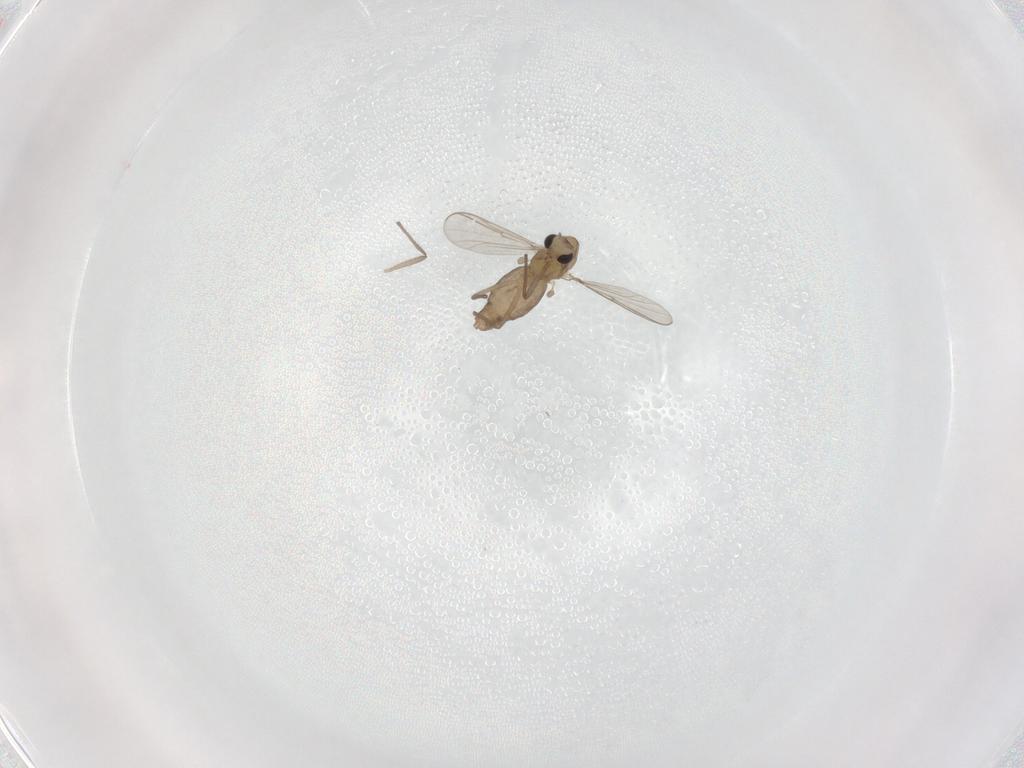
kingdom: Animalia
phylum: Arthropoda
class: Insecta
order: Diptera
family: Chironomidae
